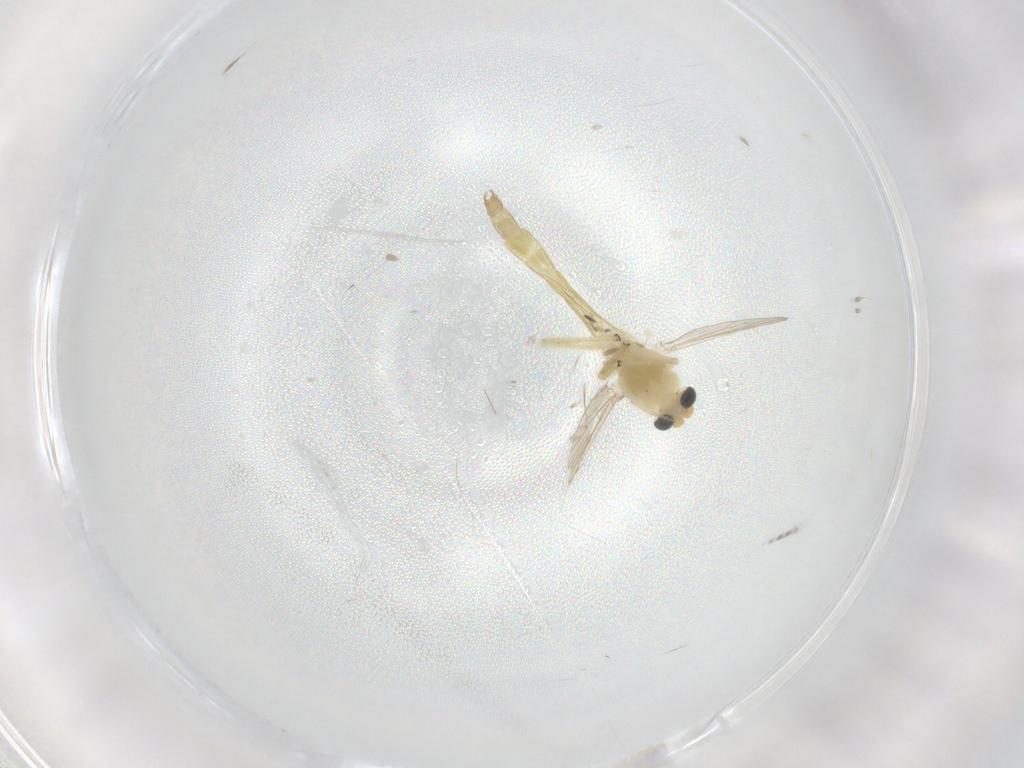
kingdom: Animalia
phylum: Arthropoda
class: Insecta
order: Diptera
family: Chironomidae
